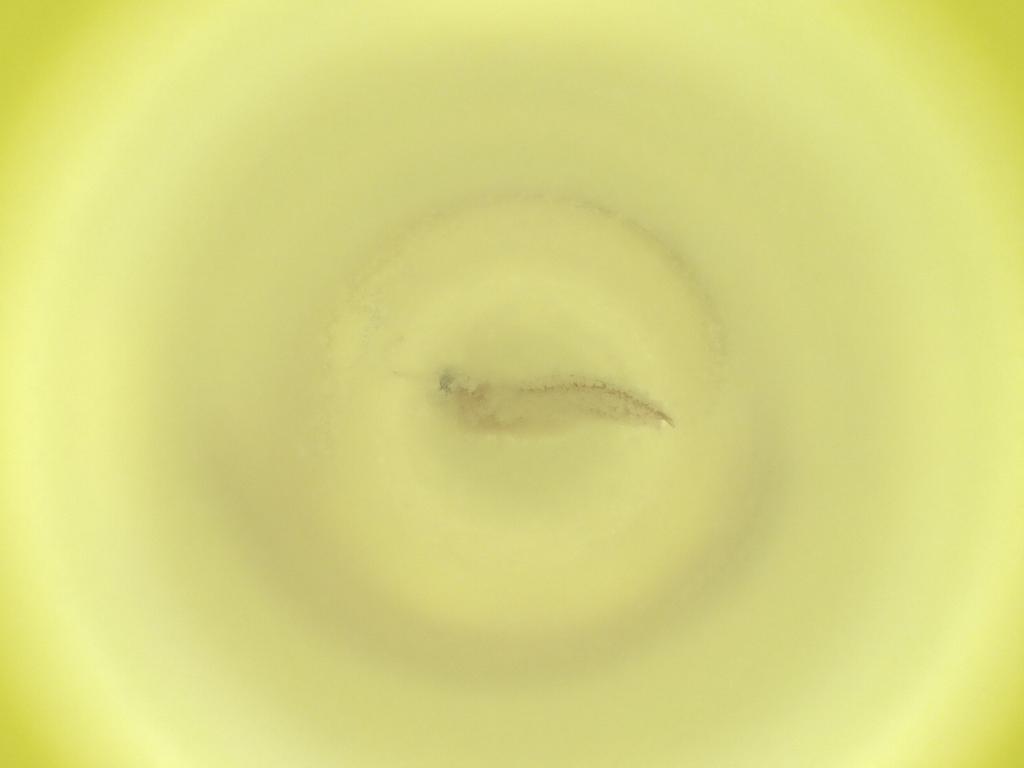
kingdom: Animalia
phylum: Arthropoda
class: Insecta
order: Diptera
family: Cecidomyiidae
